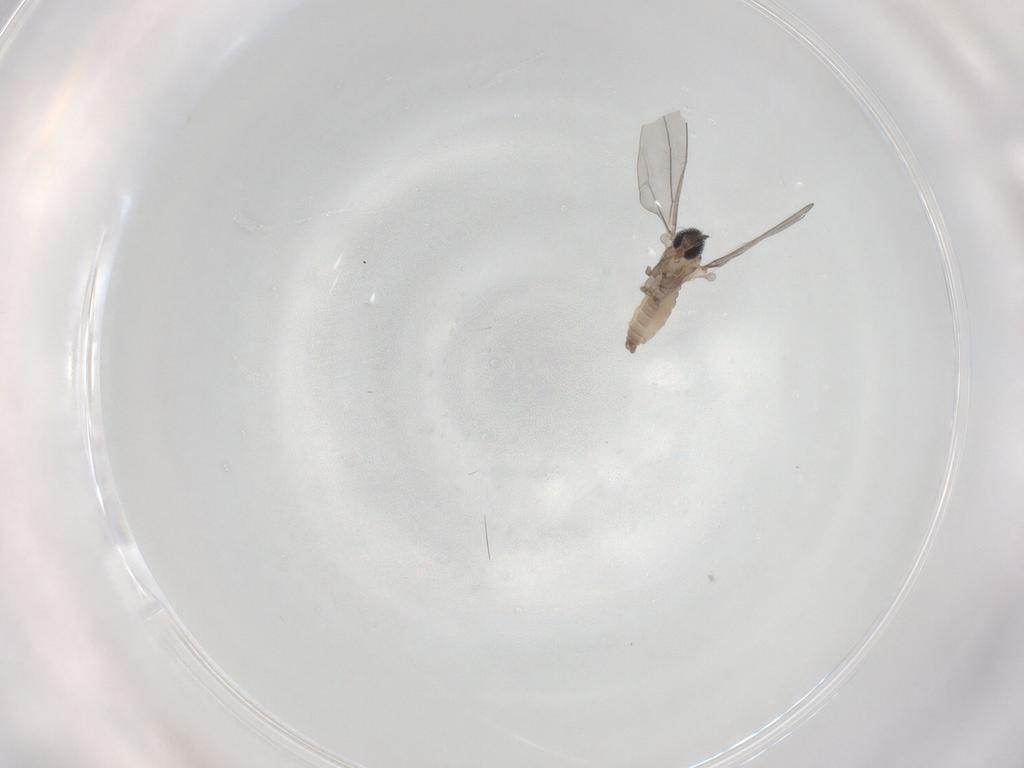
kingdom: Animalia
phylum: Arthropoda
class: Insecta
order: Diptera
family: Cecidomyiidae
